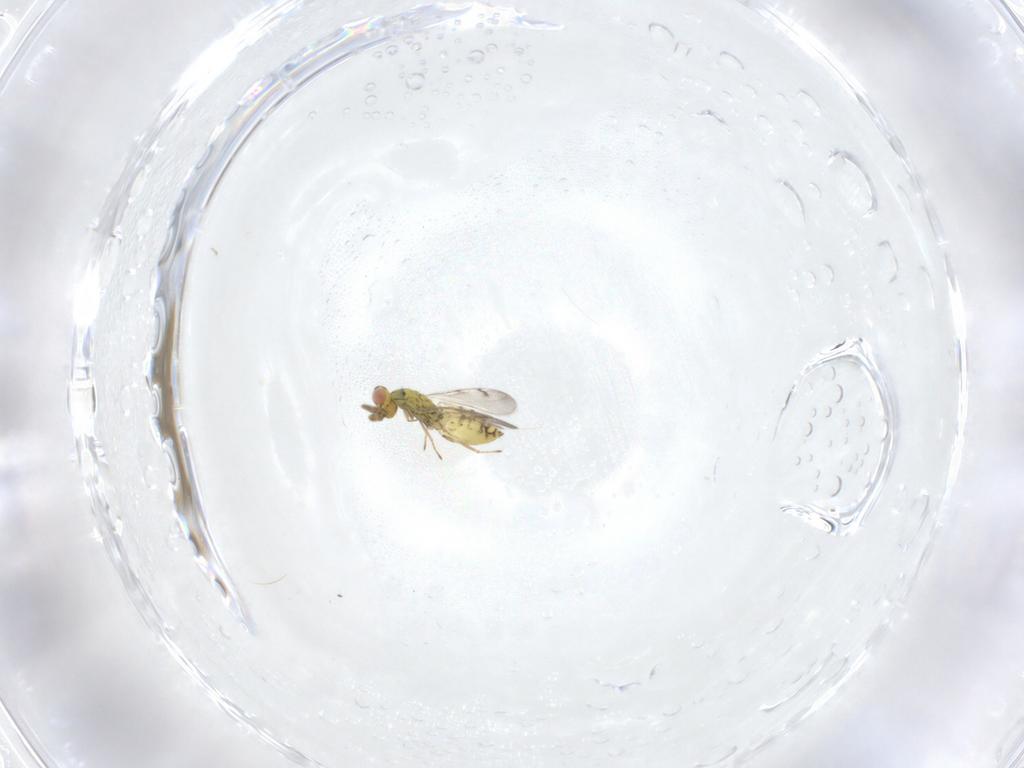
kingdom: Animalia
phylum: Arthropoda
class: Insecta
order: Hymenoptera
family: Eulophidae
